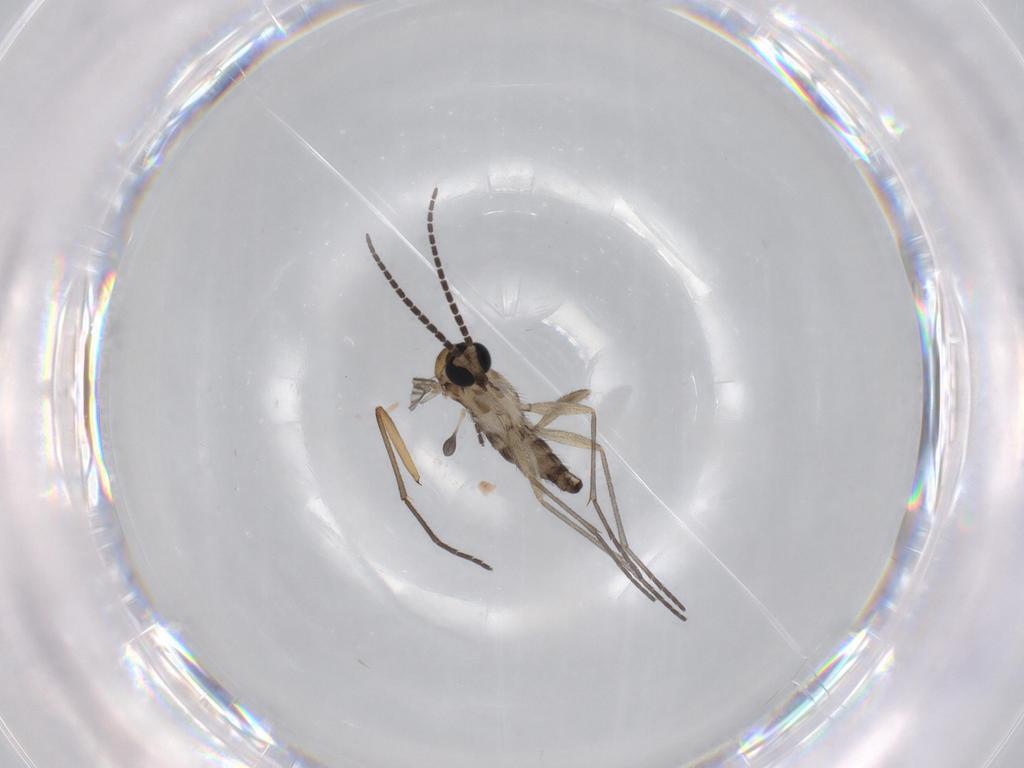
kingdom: Animalia
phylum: Arthropoda
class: Insecta
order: Diptera
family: Sciaridae
